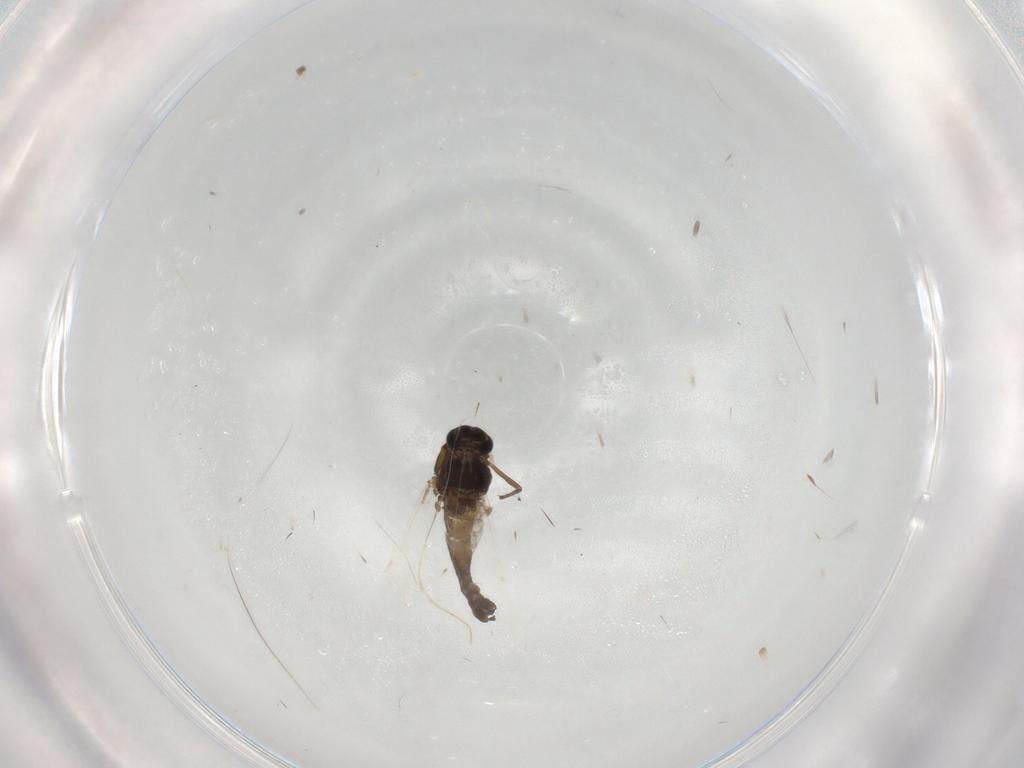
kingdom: Animalia
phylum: Arthropoda
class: Insecta
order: Diptera
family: Chironomidae
